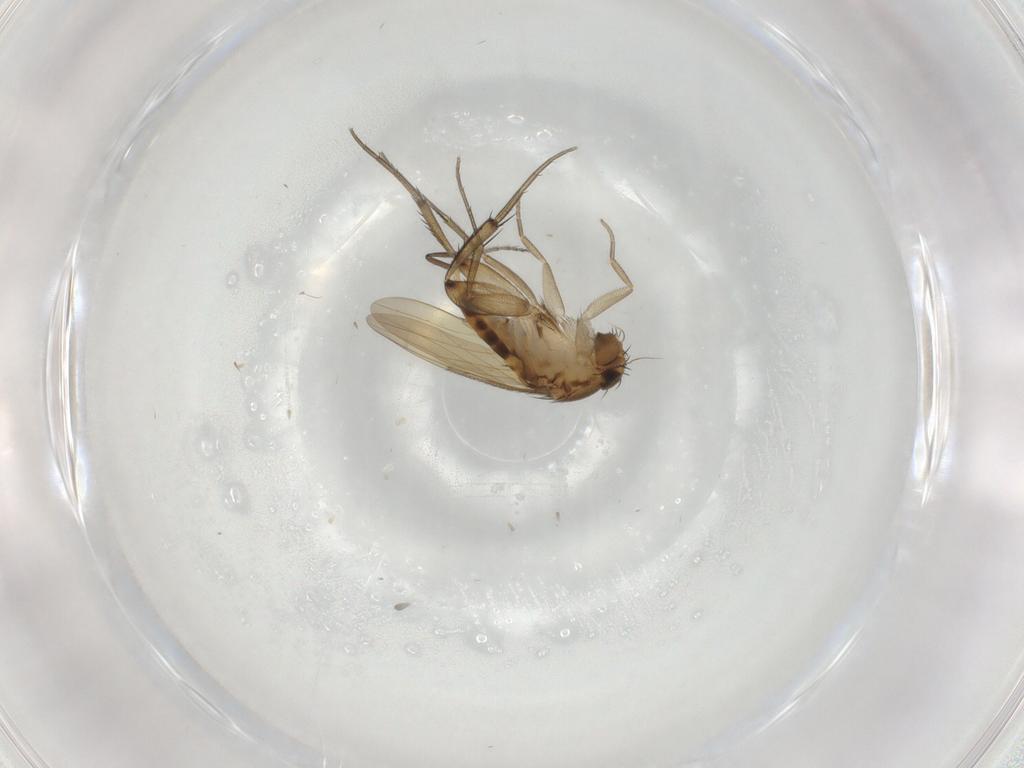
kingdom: Animalia
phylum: Arthropoda
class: Insecta
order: Diptera
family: Phoridae
